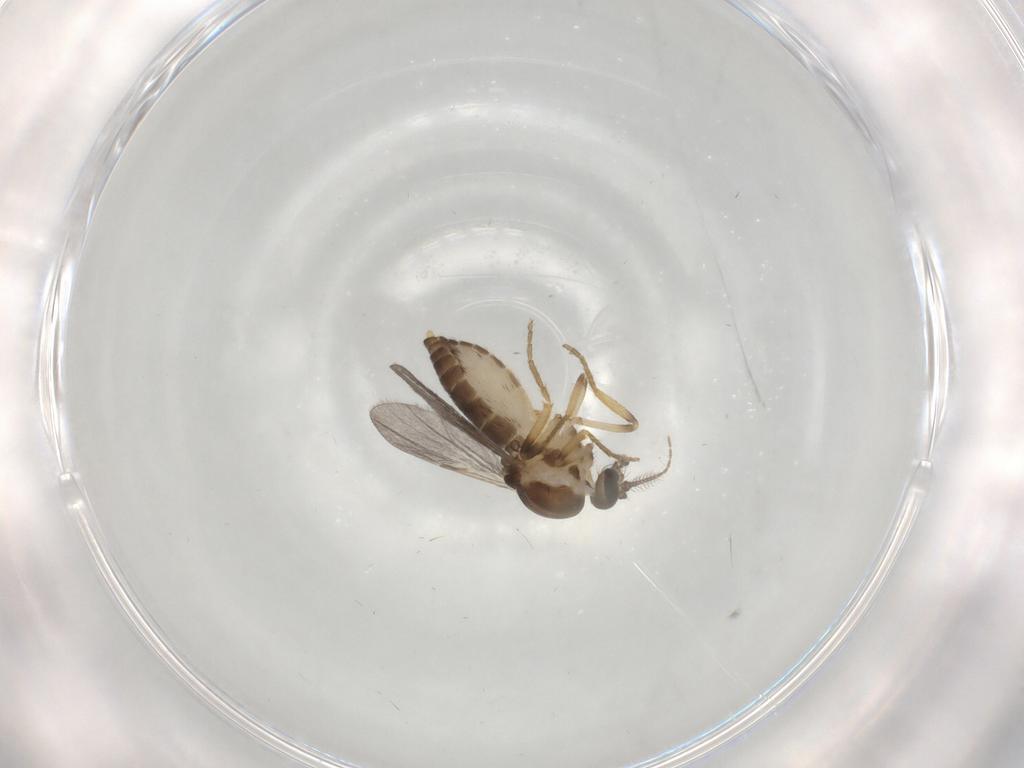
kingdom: Animalia
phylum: Arthropoda
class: Insecta
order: Diptera
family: Ceratopogonidae
